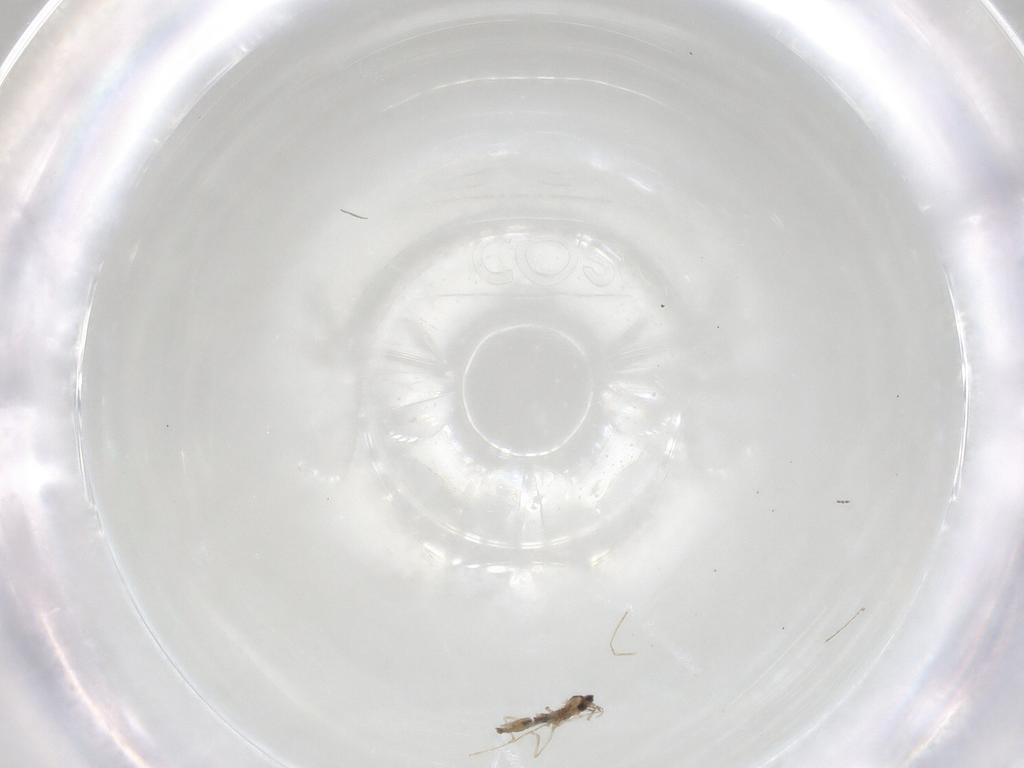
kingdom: Animalia
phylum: Arthropoda
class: Insecta
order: Diptera
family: Cecidomyiidae
